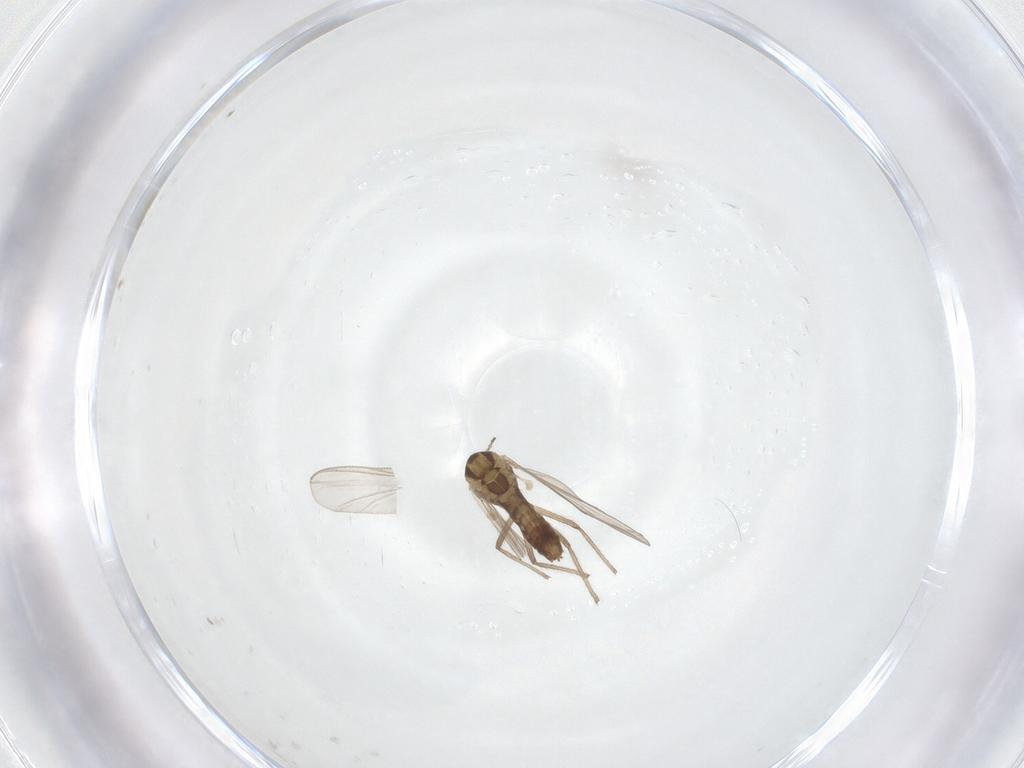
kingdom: Animalia
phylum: Arthropoda
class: Insecta
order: Diptera
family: Chironomidae
